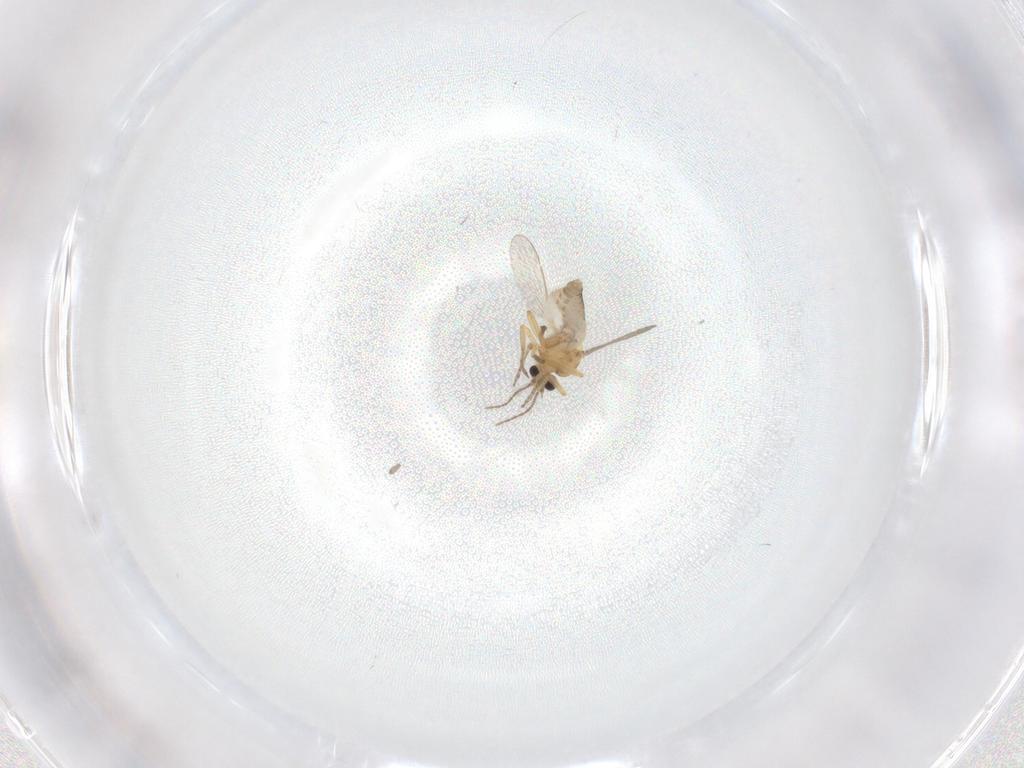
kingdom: Animalia
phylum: Arthropoda
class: Insecta
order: Diptera
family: Ceratopogonidae
